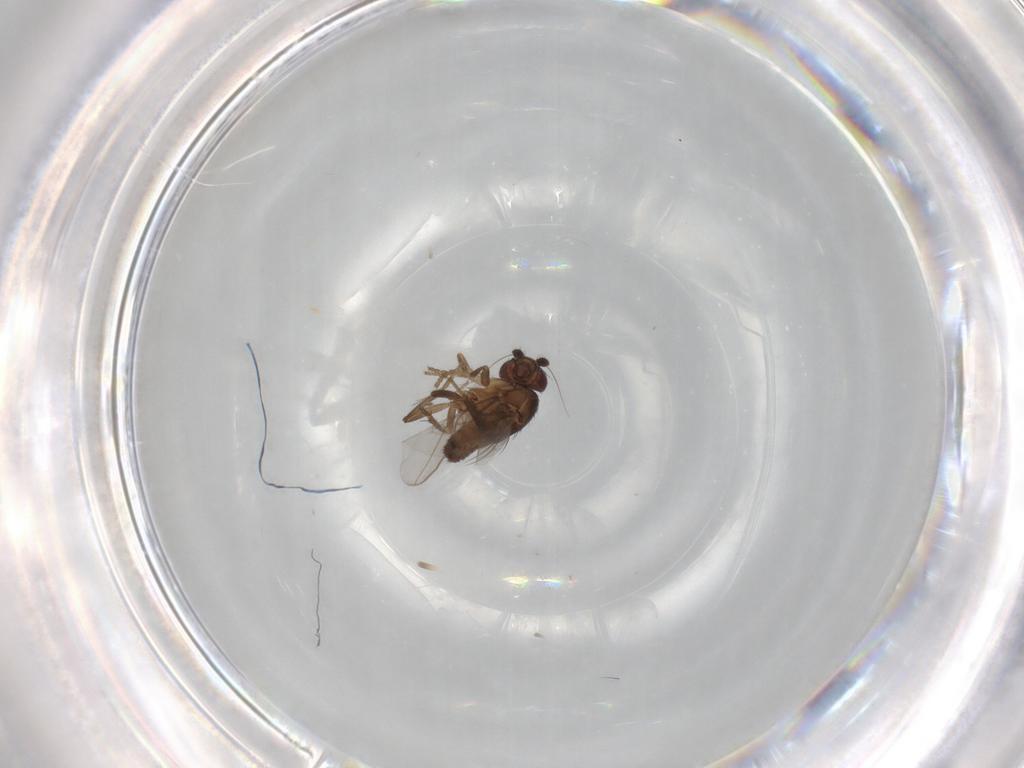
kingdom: Animalia
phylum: Arthropoda
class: Insecta
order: Diptera
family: Sphaeroceridae
